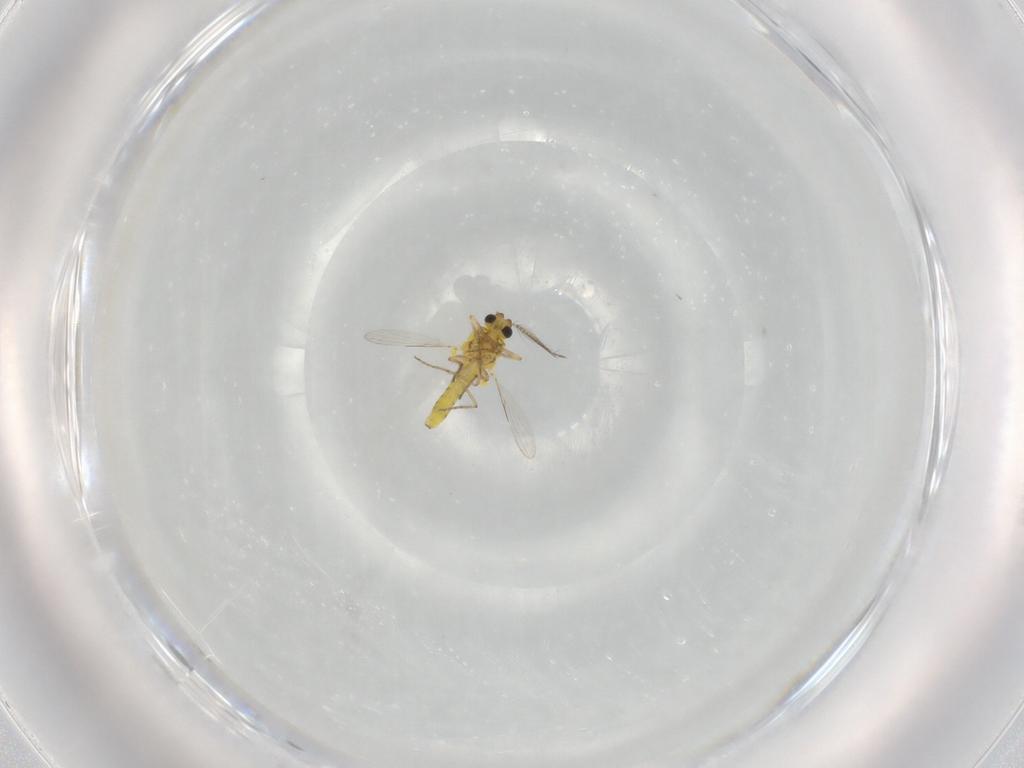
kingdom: Animalia
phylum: Arthropoda
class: Insecta
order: Diptera
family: Ceratopogonidae
